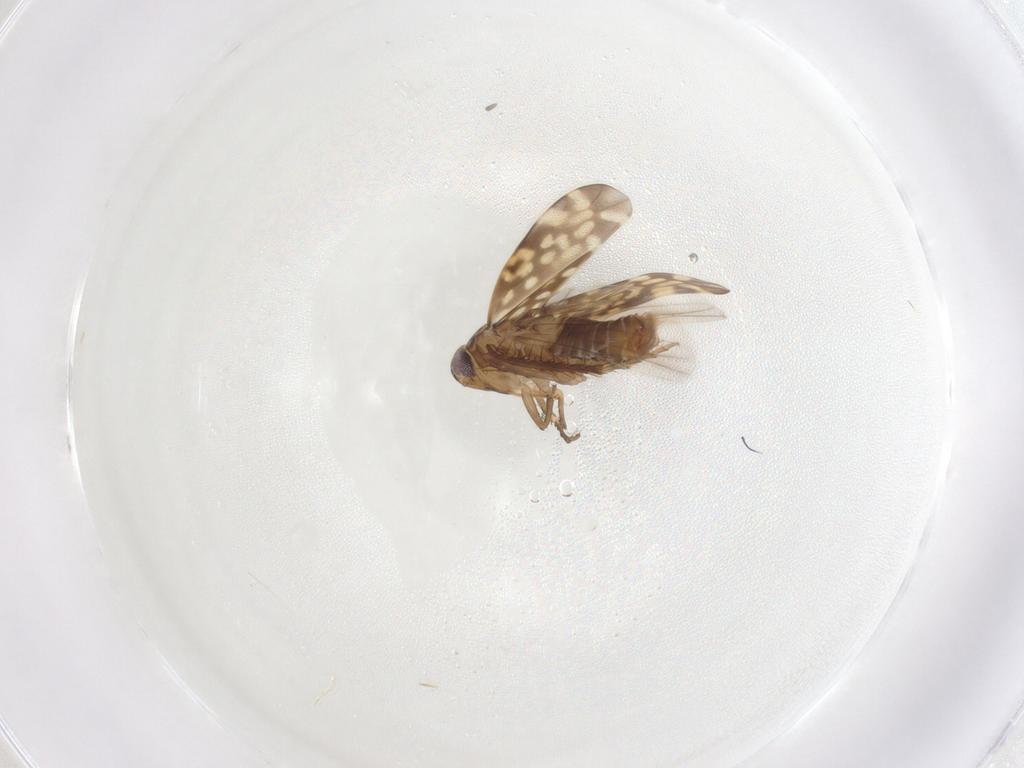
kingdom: Animalia
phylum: Arthropoda
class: Insecta
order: Hemiptera
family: Cicadellidae
